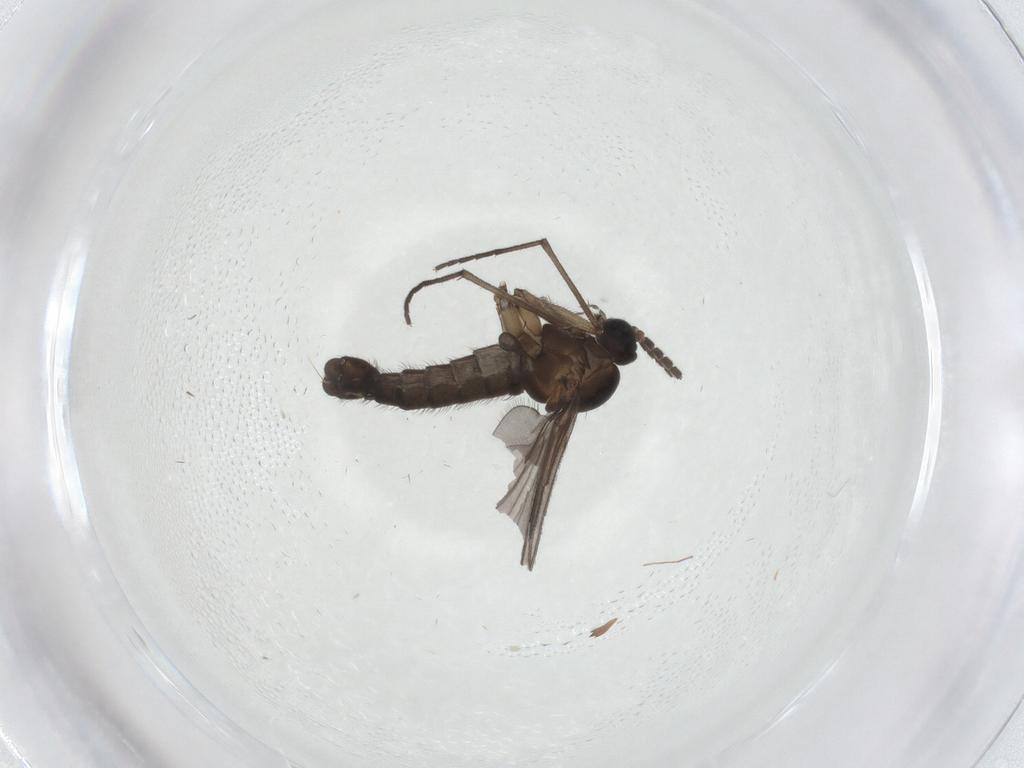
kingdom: Animalia
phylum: Arthropoda
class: Insecta
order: Diptera
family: Sciaridae
